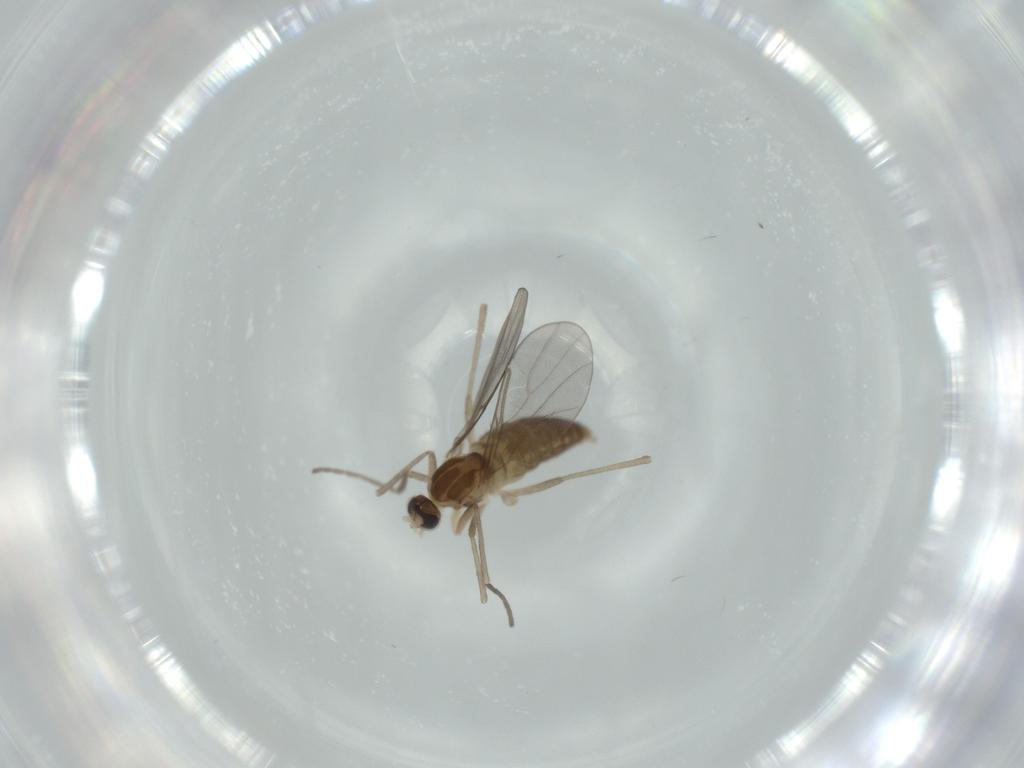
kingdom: Animalia
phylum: Arthropoda
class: Insecta
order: Diptera
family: Cecidomyiidae
